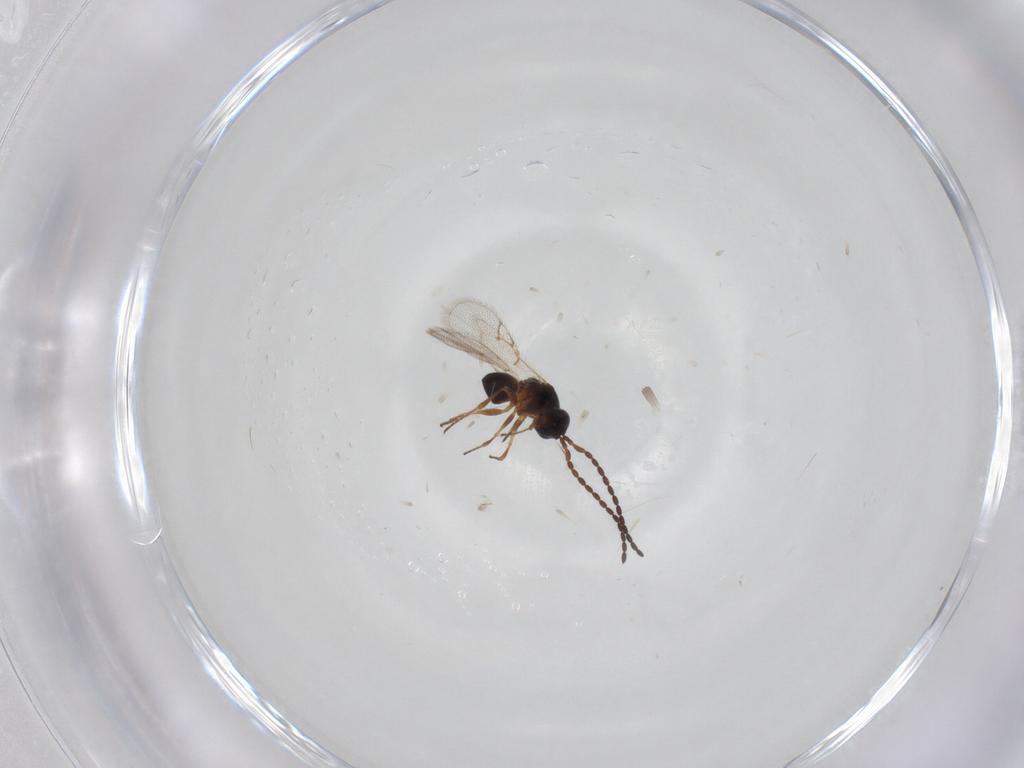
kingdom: Animalia
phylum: Arthropoda
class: Insecta
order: Hymenoptera
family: Figitidae
